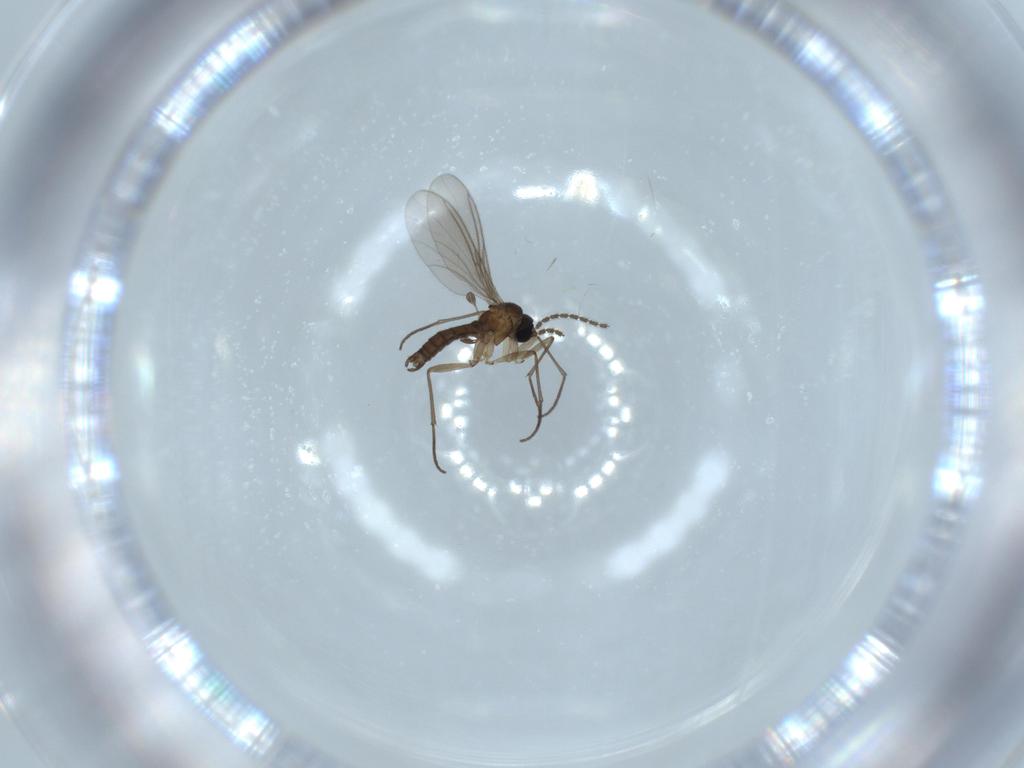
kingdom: Animalia
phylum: Arthropoda
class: Insecta
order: Diptera
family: Sciaridae
